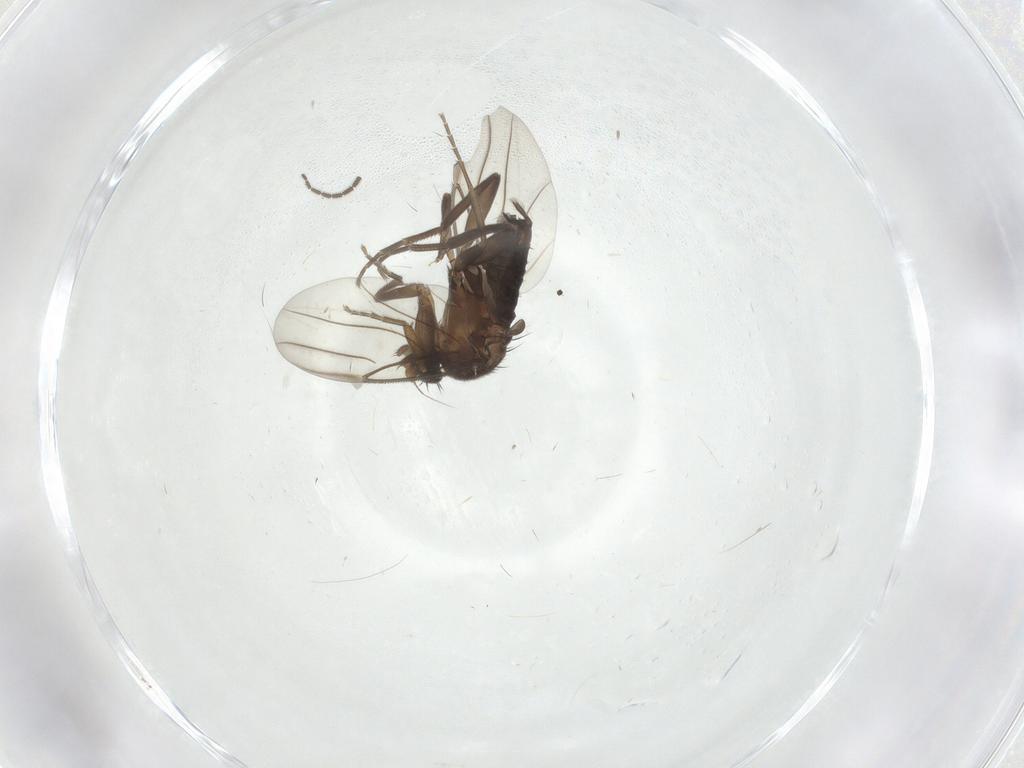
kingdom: Animalia
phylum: Arthropoda
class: Insecta
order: Diptera
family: Sciaridae
